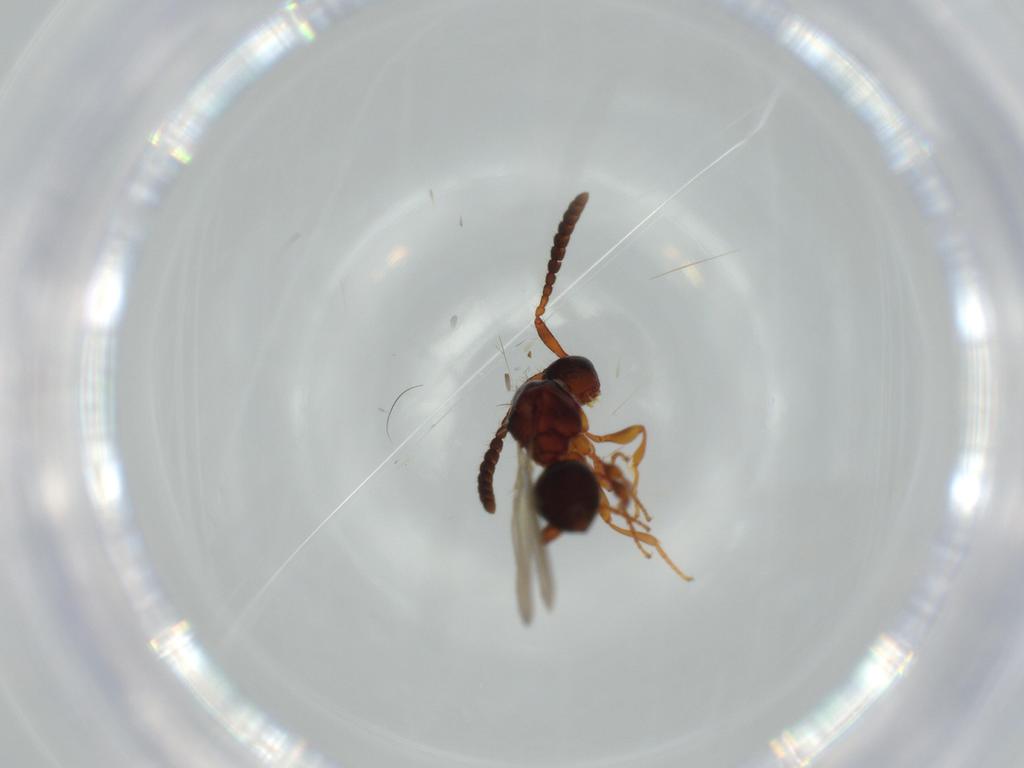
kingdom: Animalia
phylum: Arthropoda
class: Insecta
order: Hymenoptera
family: Diapriidae
